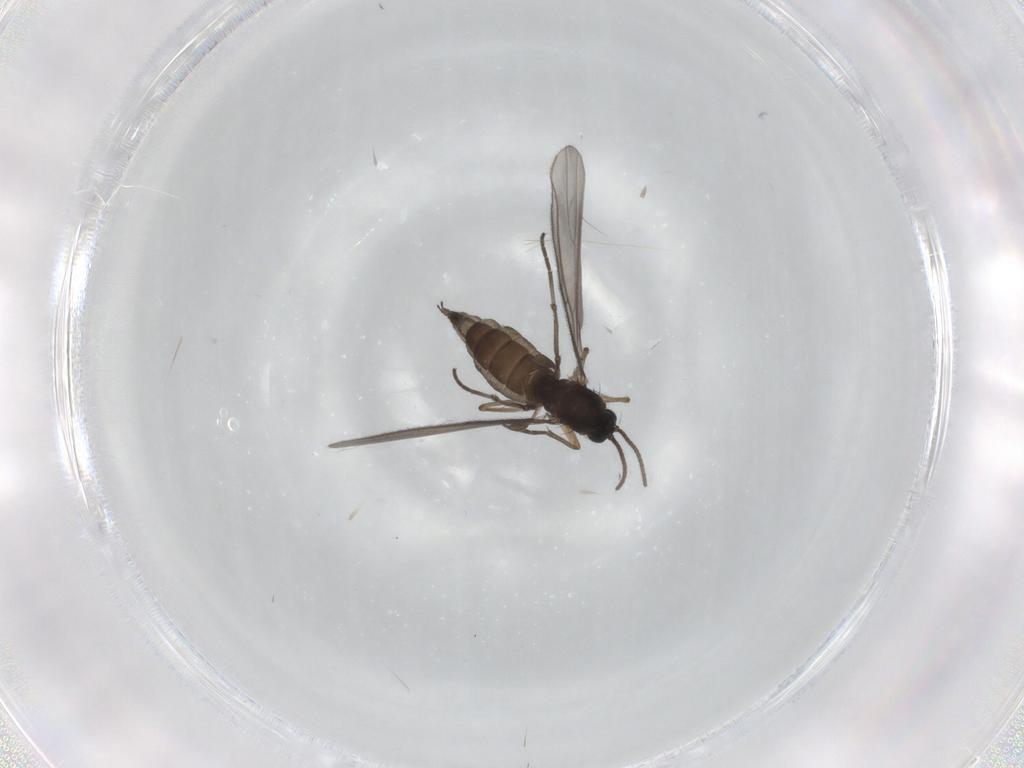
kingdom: Animalia
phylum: Arthropoda
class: Insecta
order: Diptera
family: Sciaridae
